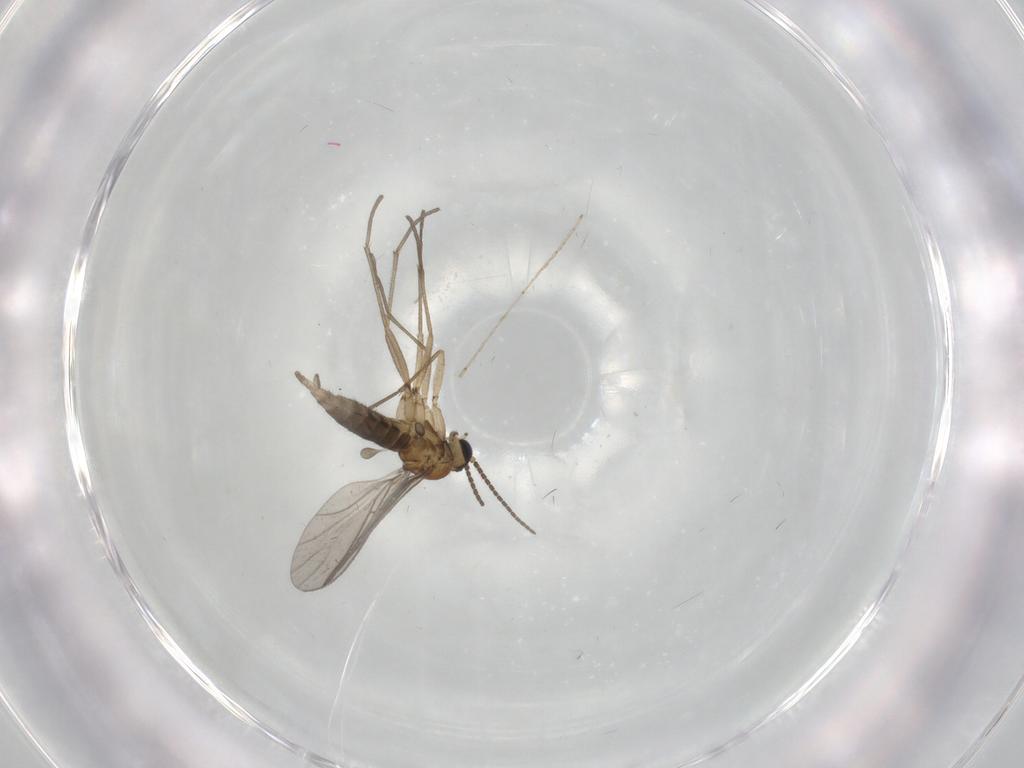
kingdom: Animalia
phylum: Arthropoda
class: Insecta
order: Diptera
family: Sciaridae
